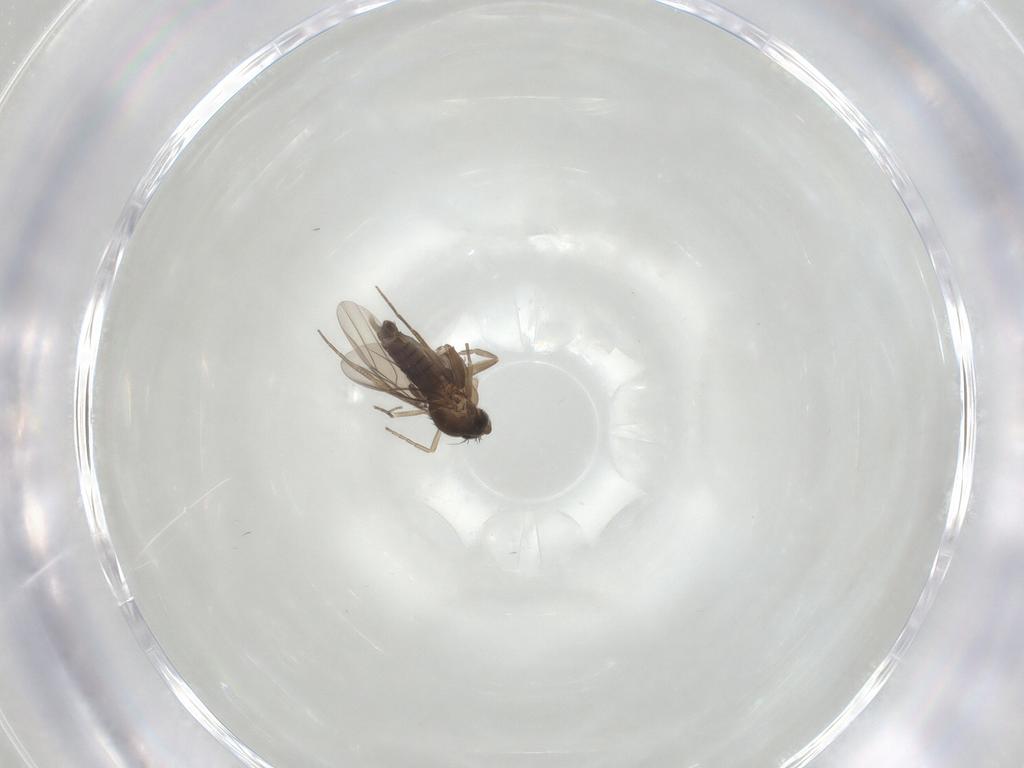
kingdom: Animalia
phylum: Arthropoda
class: Insecta
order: Diptera
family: Phoridae
